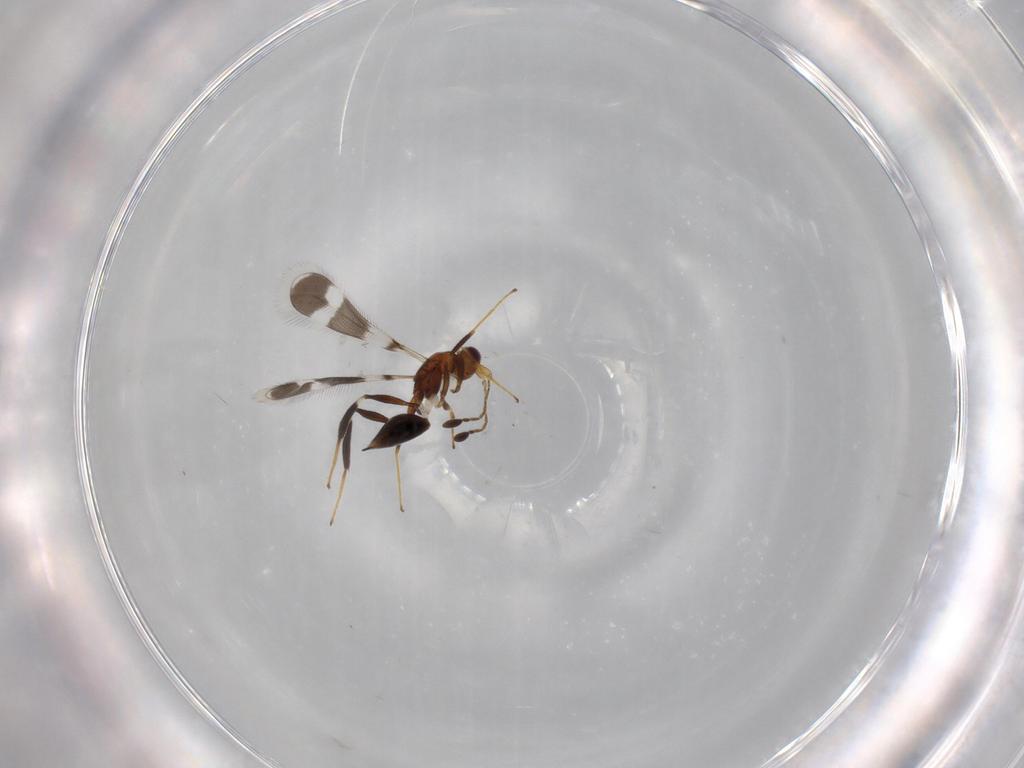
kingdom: Animalia
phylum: Arthropoda
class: Insecta
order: Hymenoptera
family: Mymaridae
